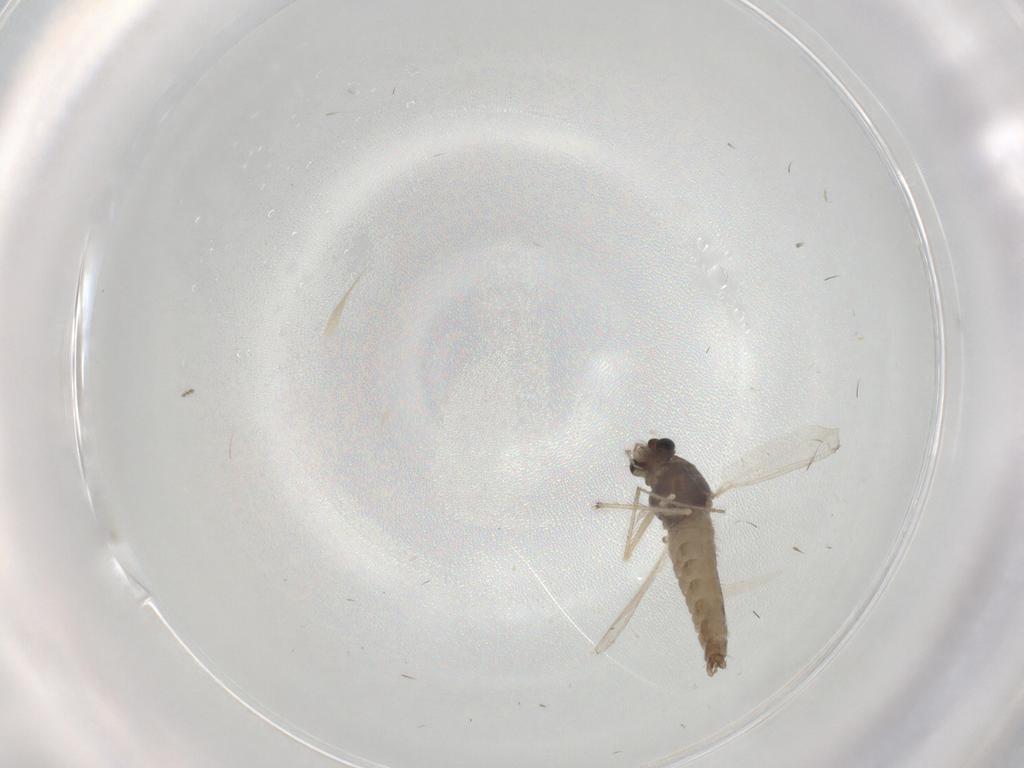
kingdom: Animalia
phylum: Arthropoda
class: Insecta
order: Diptera
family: Chironomidae
